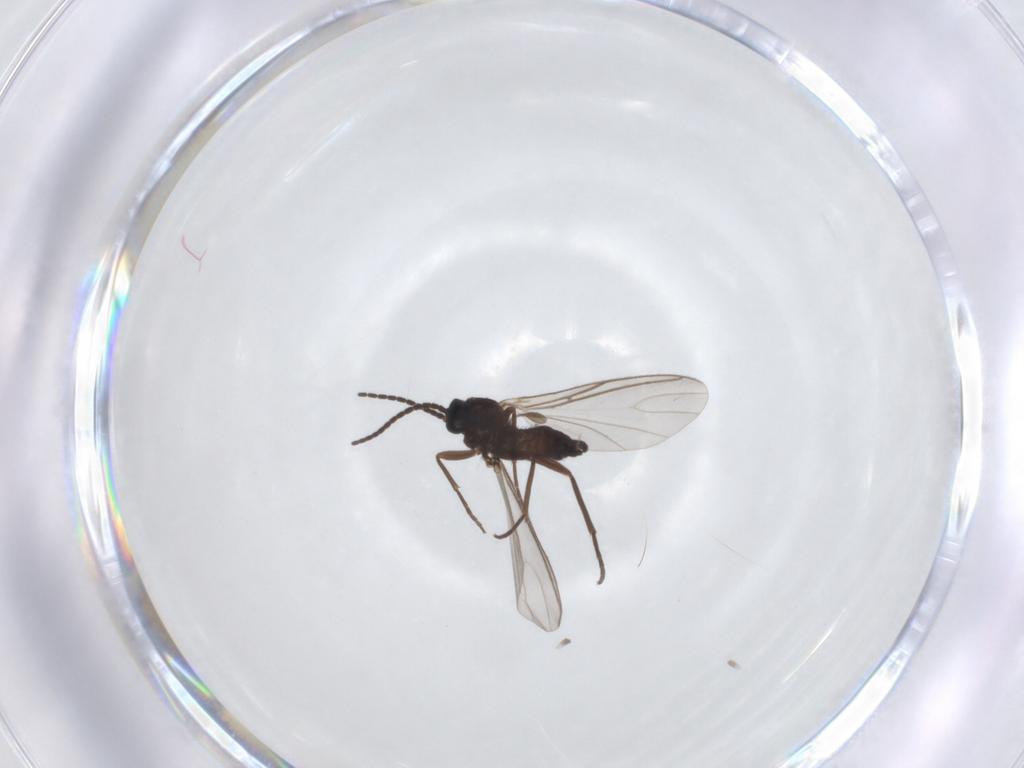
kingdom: Animalia
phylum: Arthropoda
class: Insecta
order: Diptera
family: Sciaridae
